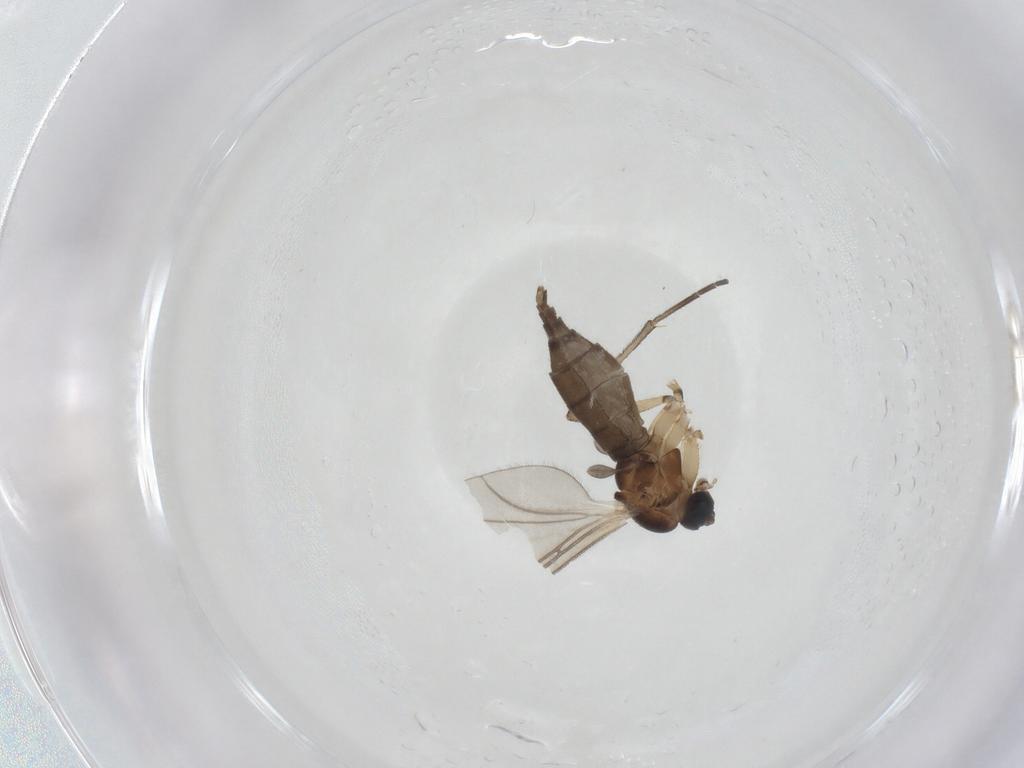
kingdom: Animalia
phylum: Arthropoda
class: Insecta
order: Diptera
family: Sciaridae
